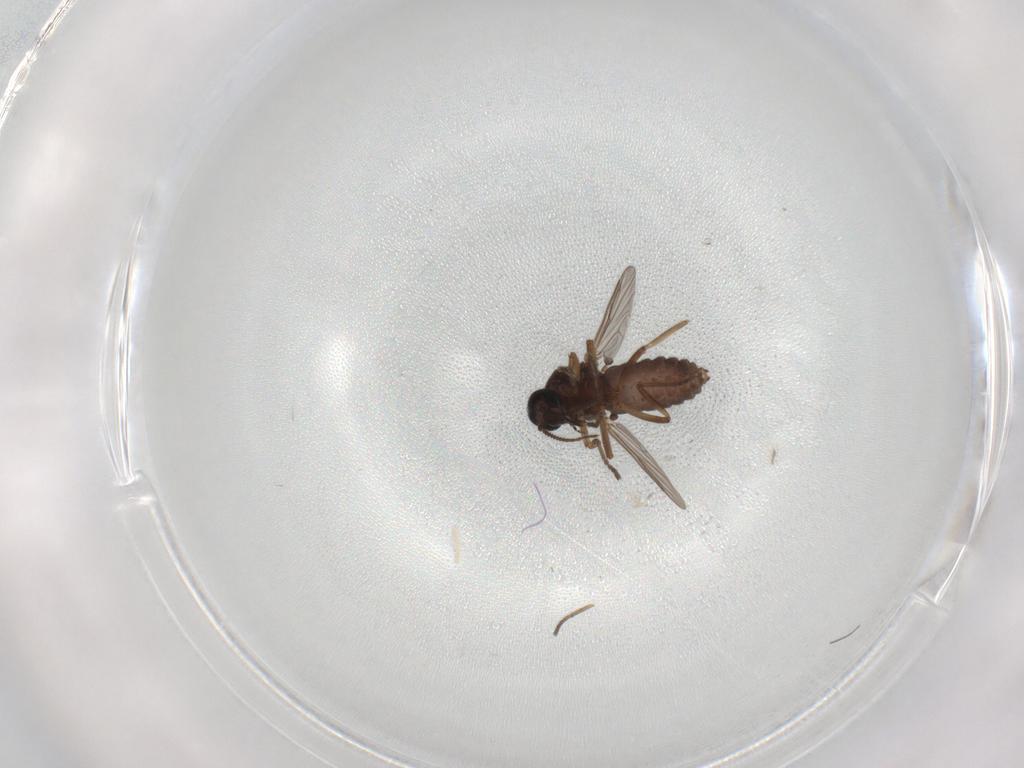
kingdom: Animalia
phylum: Arthropoda
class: Insecta
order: Diptera
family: Ceratopogonidae
